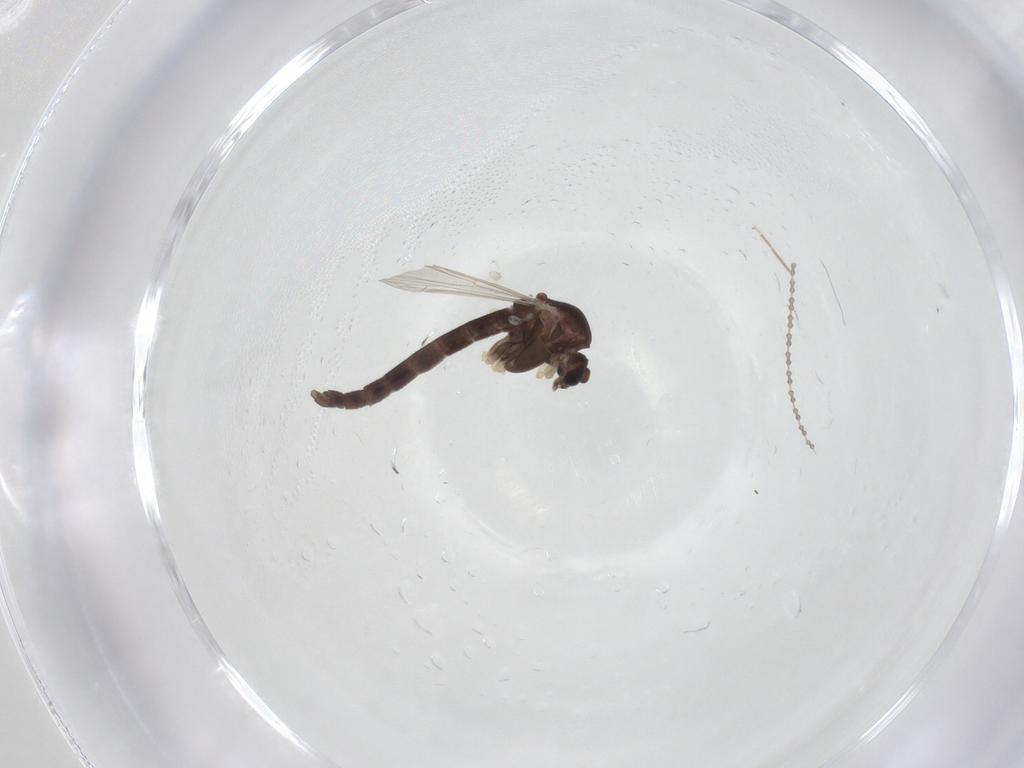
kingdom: Animalia
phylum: Arthropoda
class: Insecta
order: Diptera
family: Chironomidae
